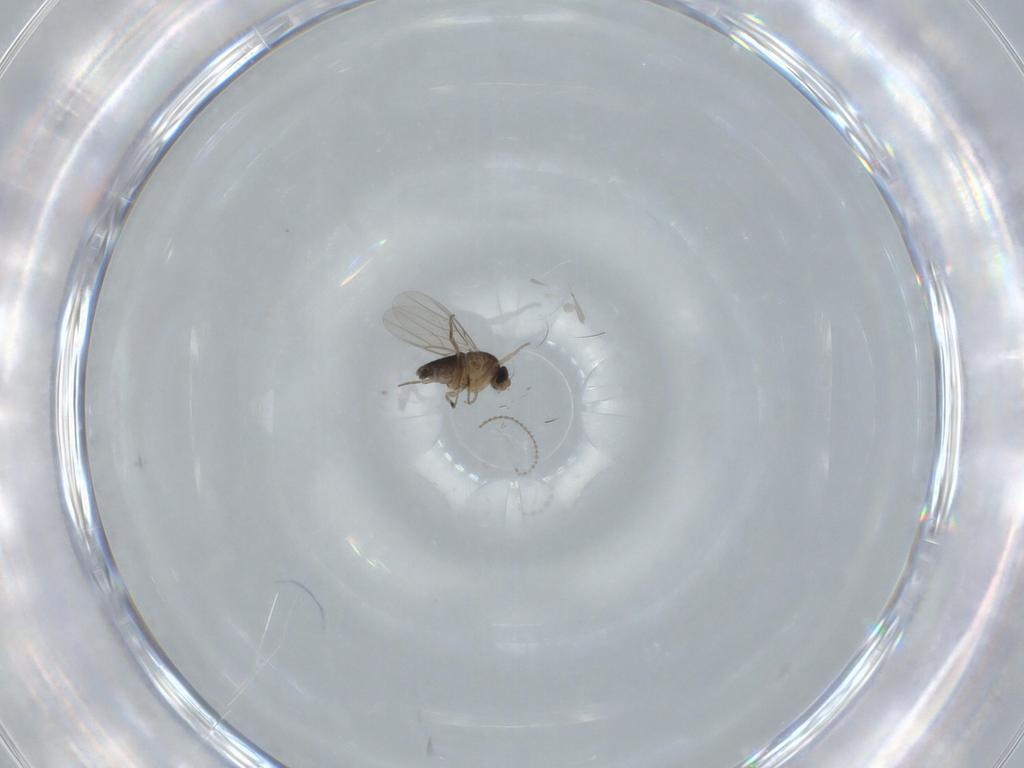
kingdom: Animalia
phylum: Arthropoda
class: Insecta
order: Diptera
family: Phoridae
